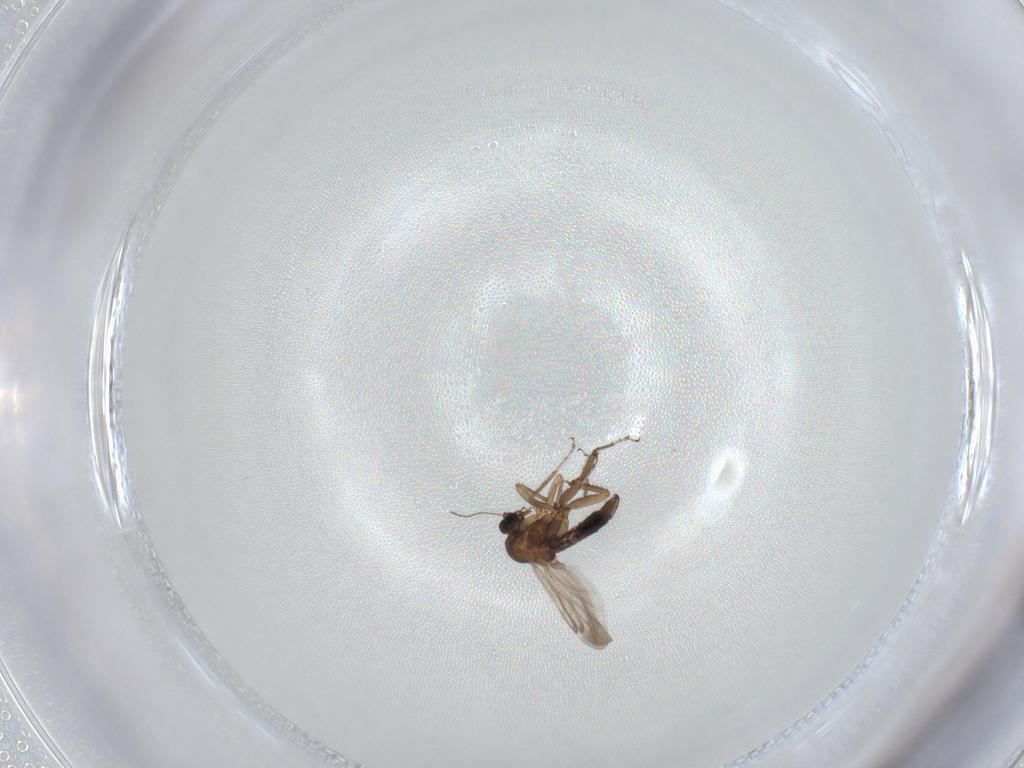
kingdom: Animalia
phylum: Arthropoda
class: Insecta
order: Diptera
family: Ceratopogonidae
